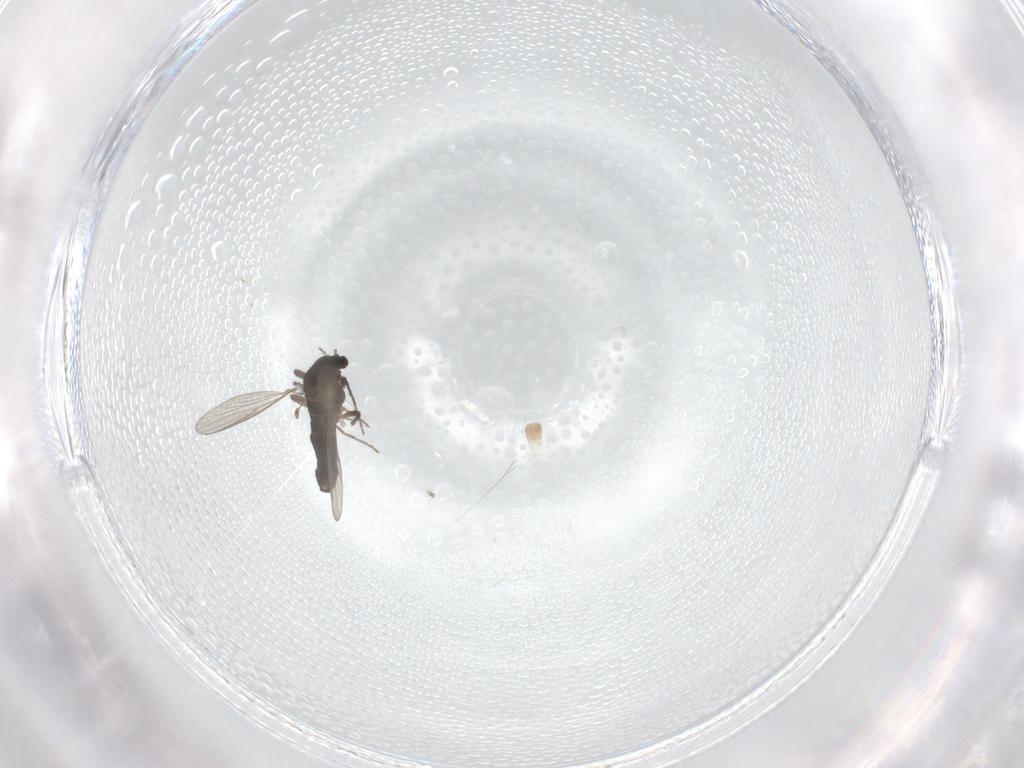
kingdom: Animalia
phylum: Arthropoda
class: Insecta
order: Diptera
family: Chironomidae
